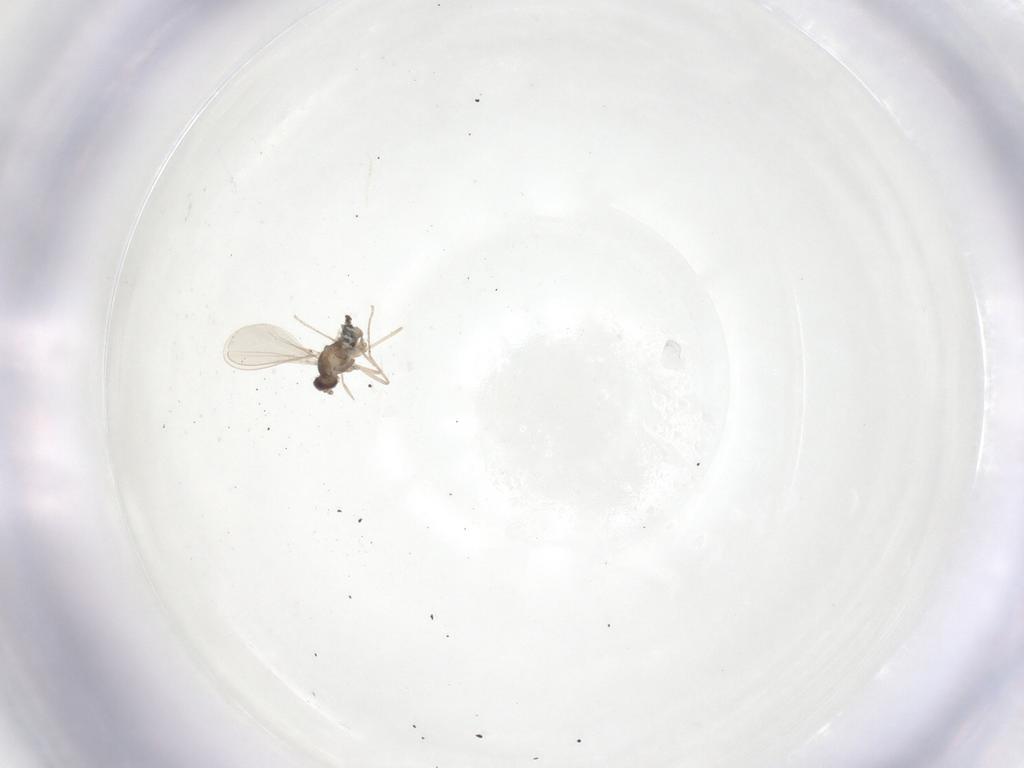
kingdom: Animalia
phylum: Arthropoda
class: Insecta
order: Diptera
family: Cecidomyiidae
